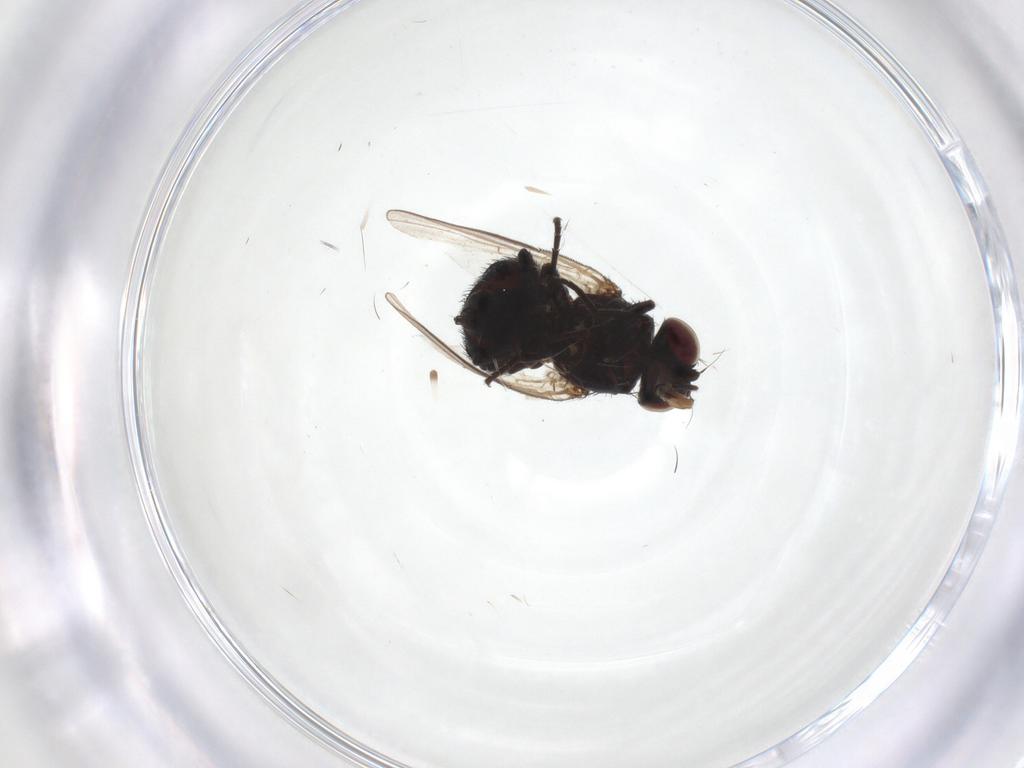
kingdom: Animalia
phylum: Arthropoda
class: Insecta
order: Diptera
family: Agromyzidae
